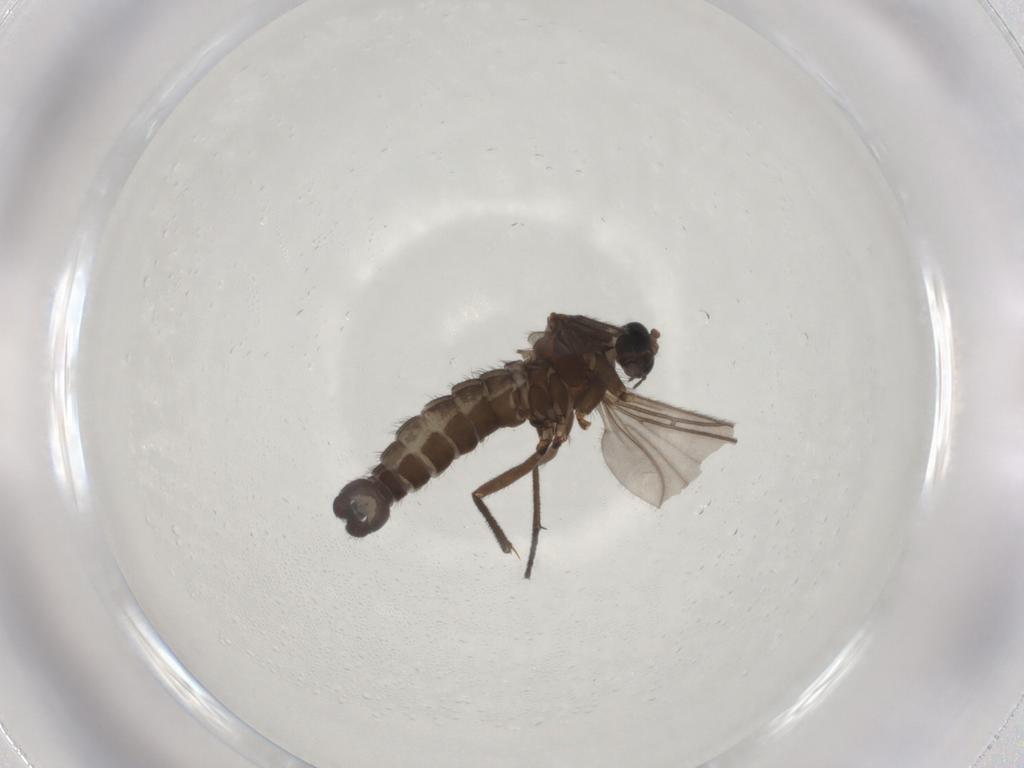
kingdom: Animalia
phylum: Arthropoda
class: Insecta
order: Diptera
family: Sciaridae
